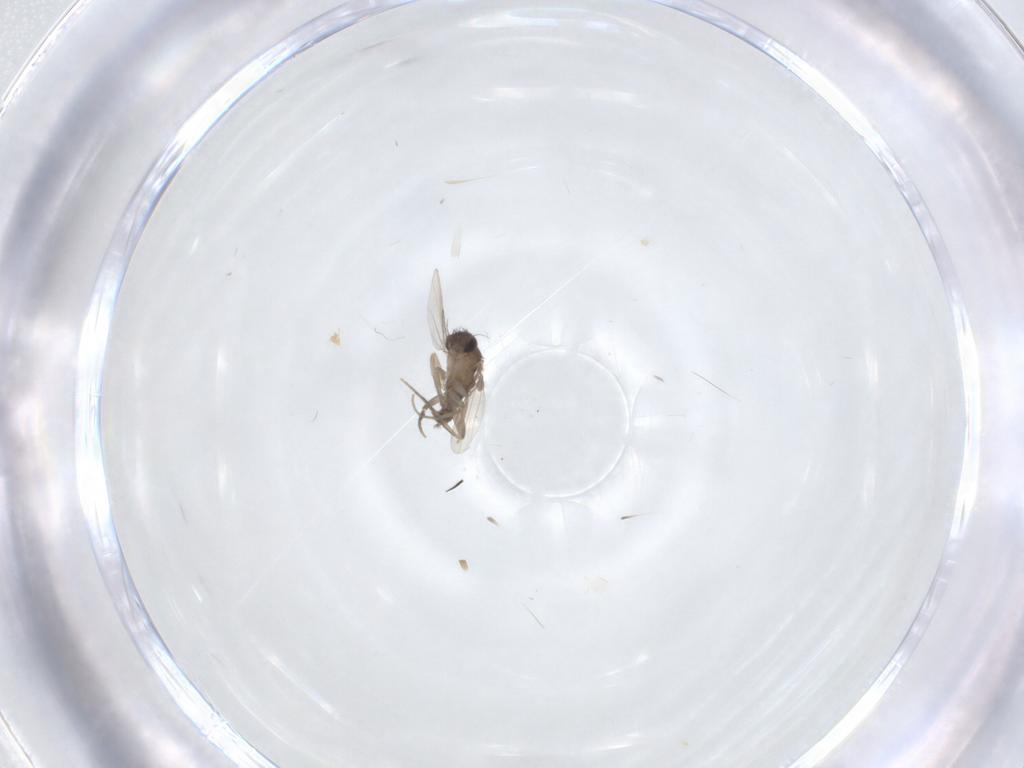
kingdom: Animalia
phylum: Arthropoda
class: Insecta
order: Diptera
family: Phoridae
